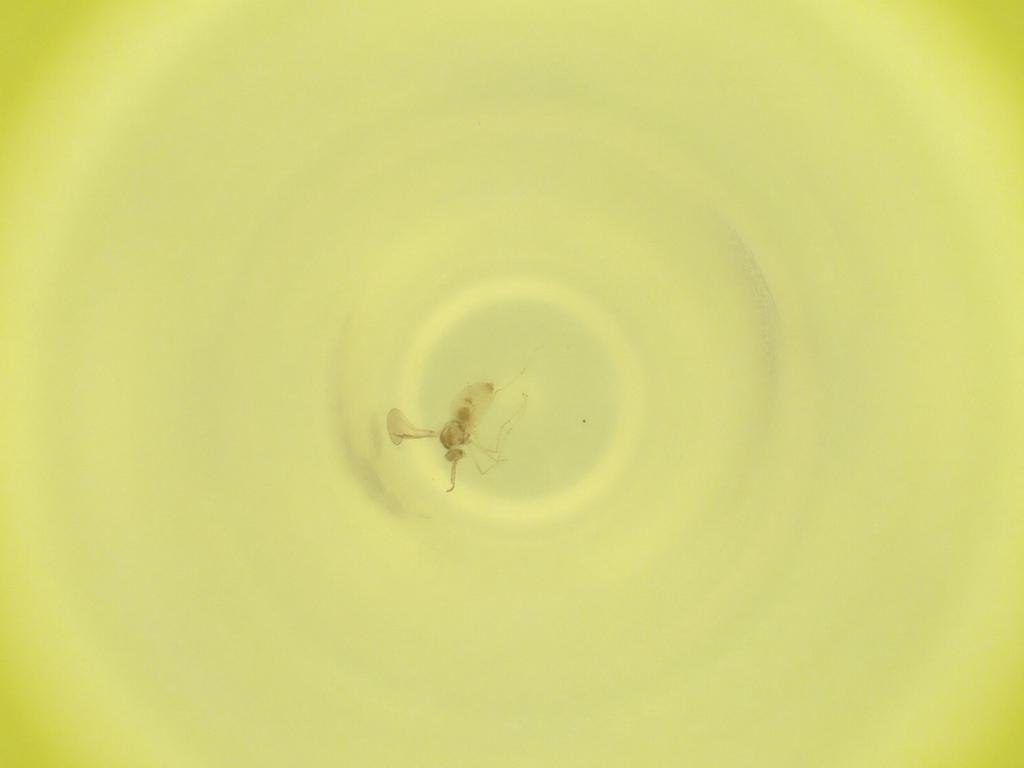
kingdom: Animalia
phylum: Arthropoda
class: Insecta
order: Diptera
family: Cecidomyiidae
